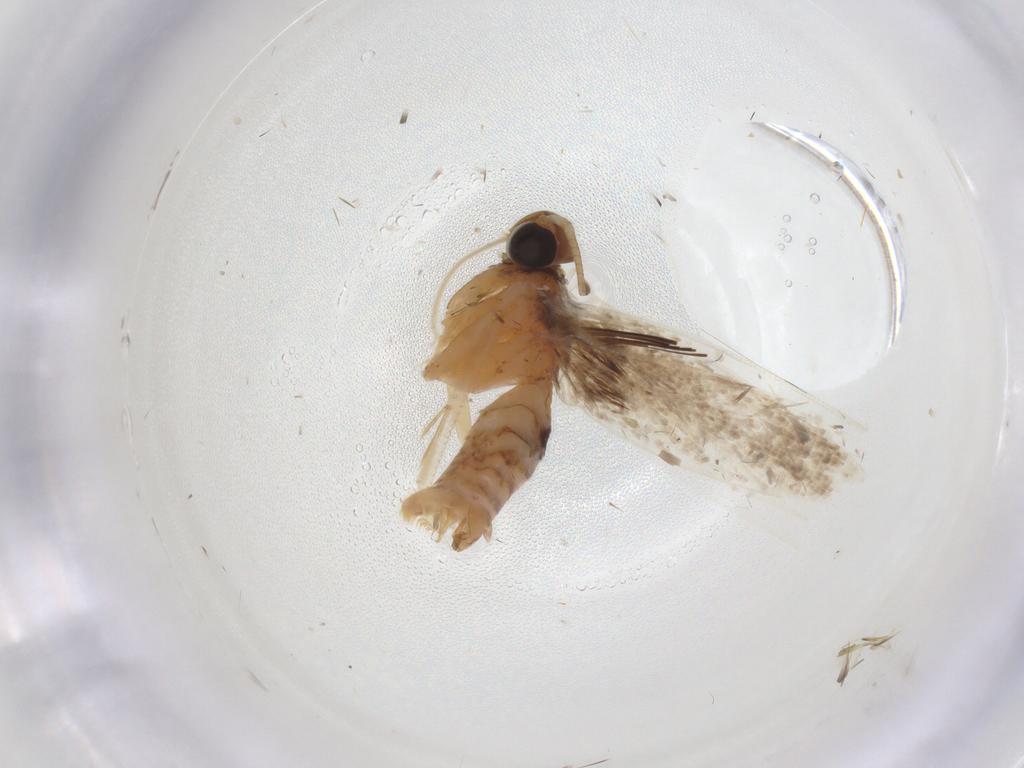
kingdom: Animalia
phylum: Arthropoda
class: Insecta
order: Lepidoptera
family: Gelechiidae
